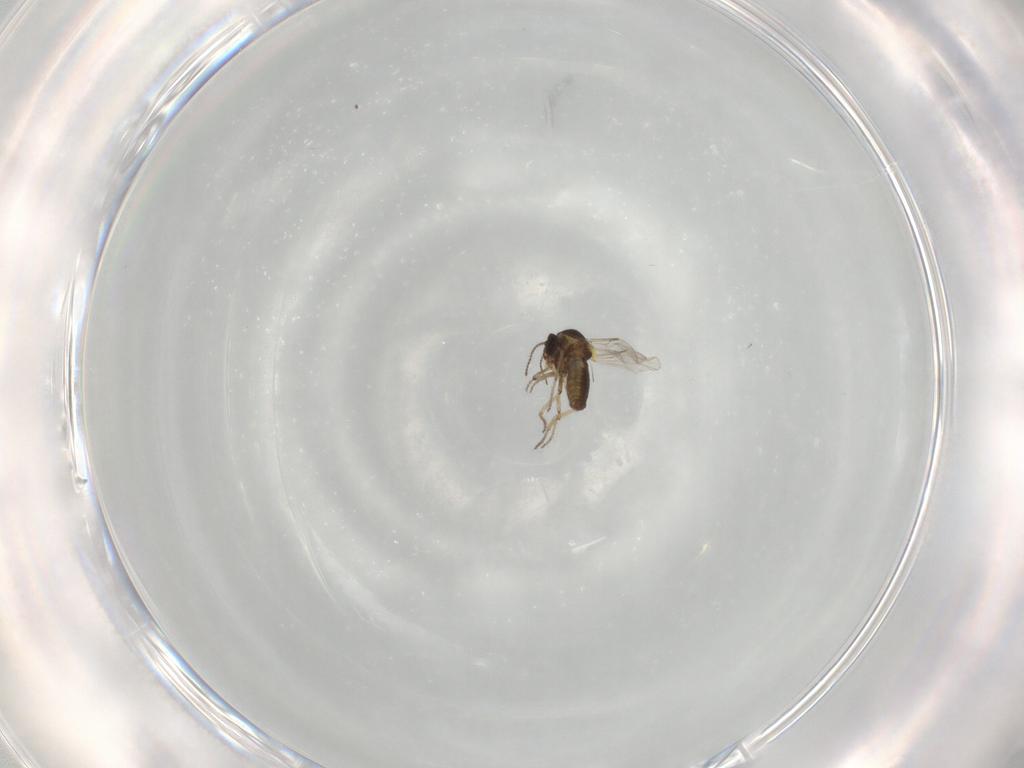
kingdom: Animalia
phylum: Arthropoda
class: Insecta
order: Diptera
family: Ceratopogonidae
